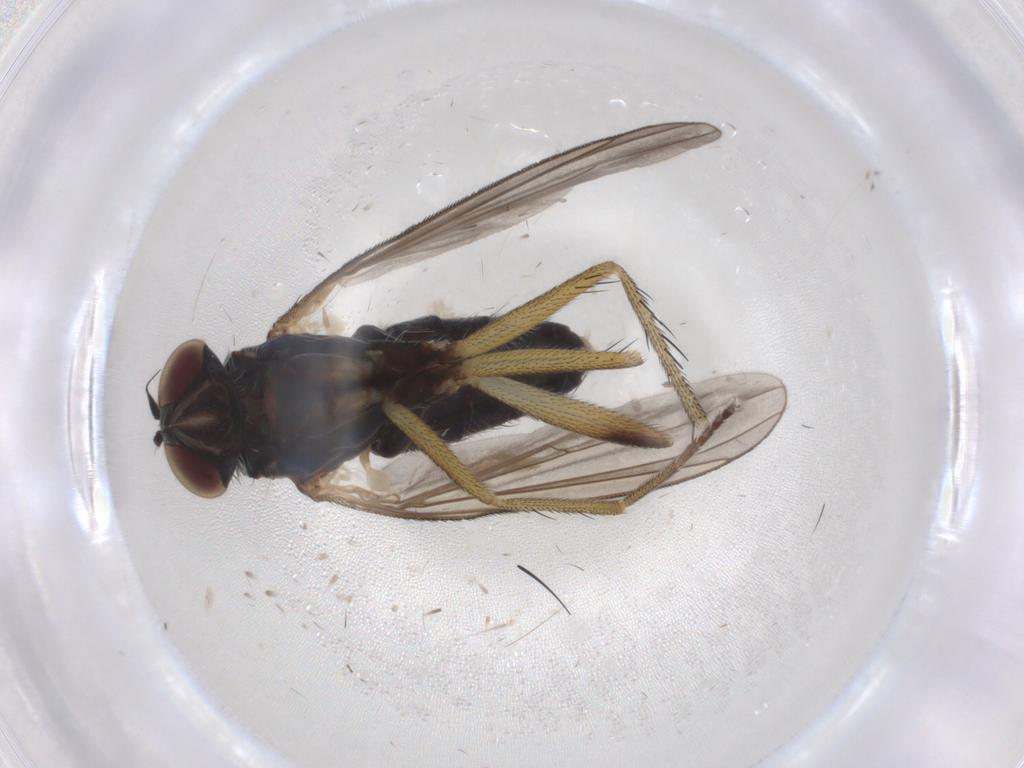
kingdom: Animalia
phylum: Arthropoda
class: Insecta
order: Diptera
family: Dolichopodidae
